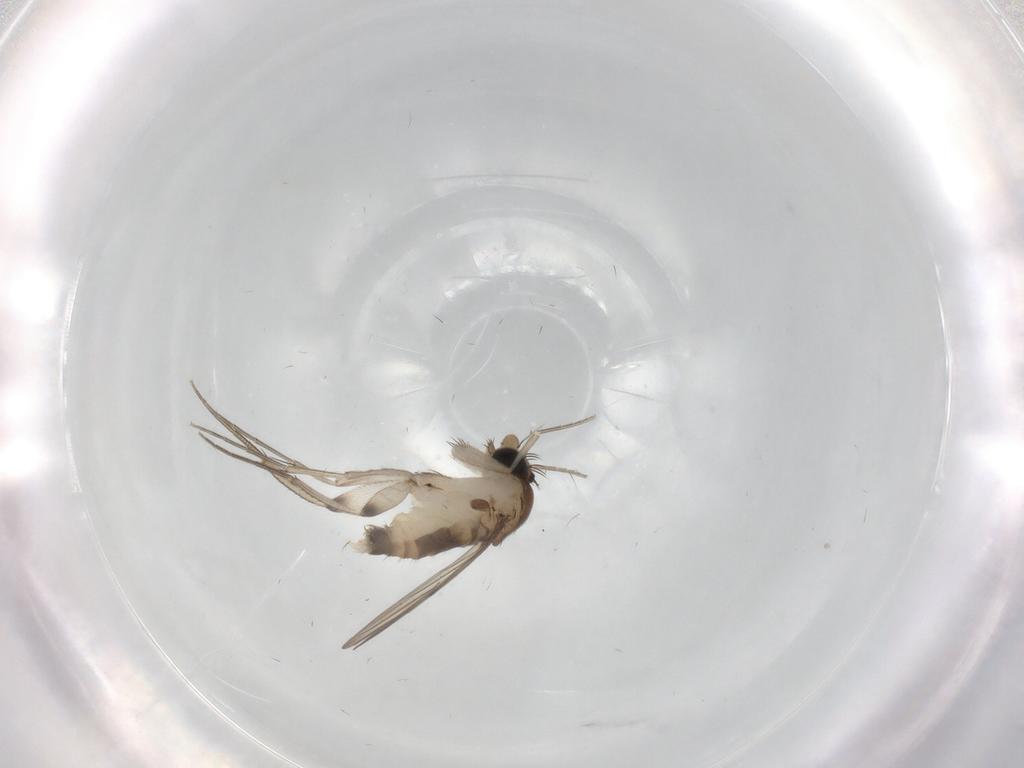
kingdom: Animalia
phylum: Arthropoda
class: Insecta
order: Diptera
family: Phoridae
